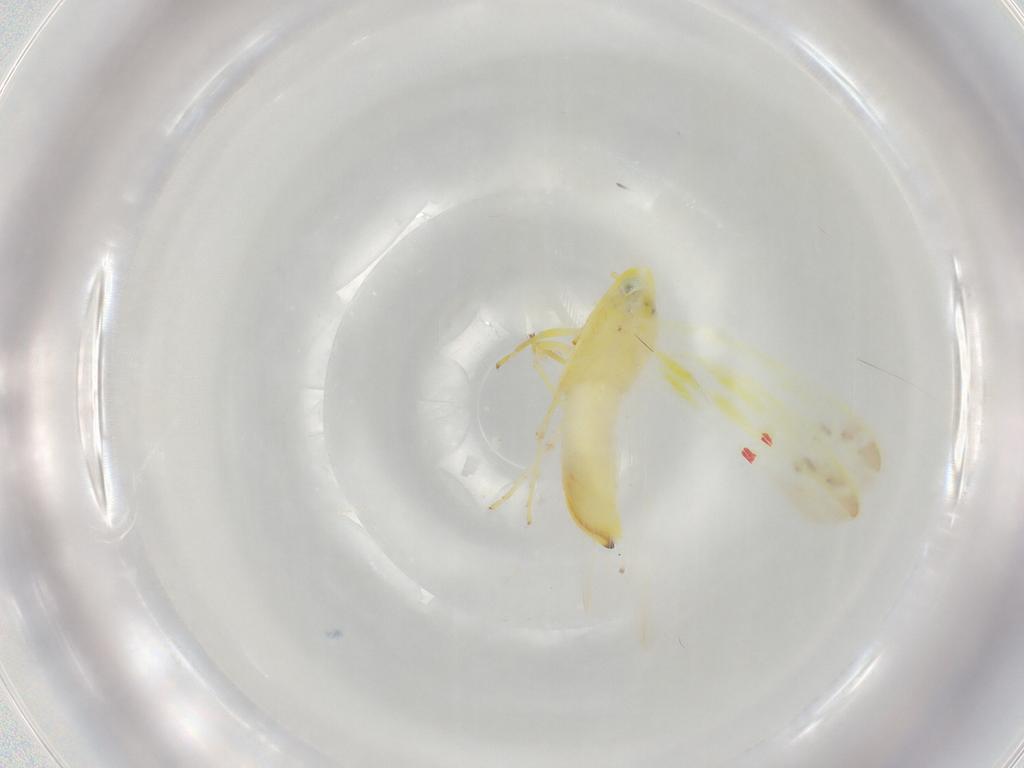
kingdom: Animalia
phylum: Arthropoda
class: Insecta
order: Hemiptera
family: Cicadellidae
